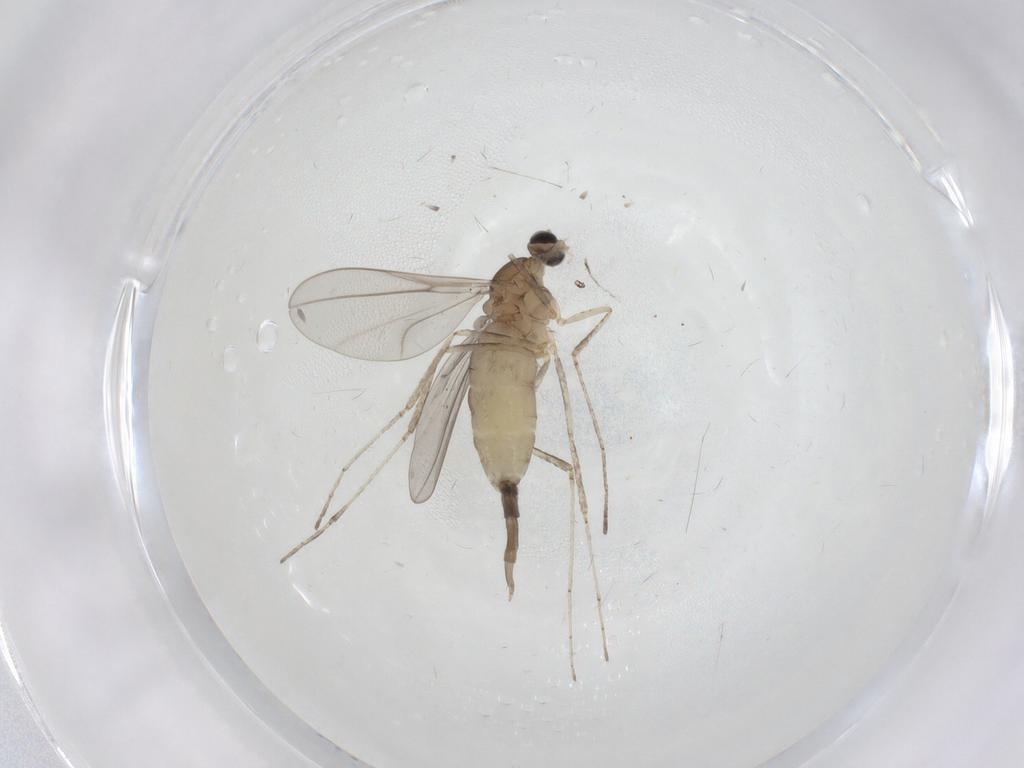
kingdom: Animalia
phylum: Arthropoda
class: Insecta
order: Diptera
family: Cecidomyiidae
